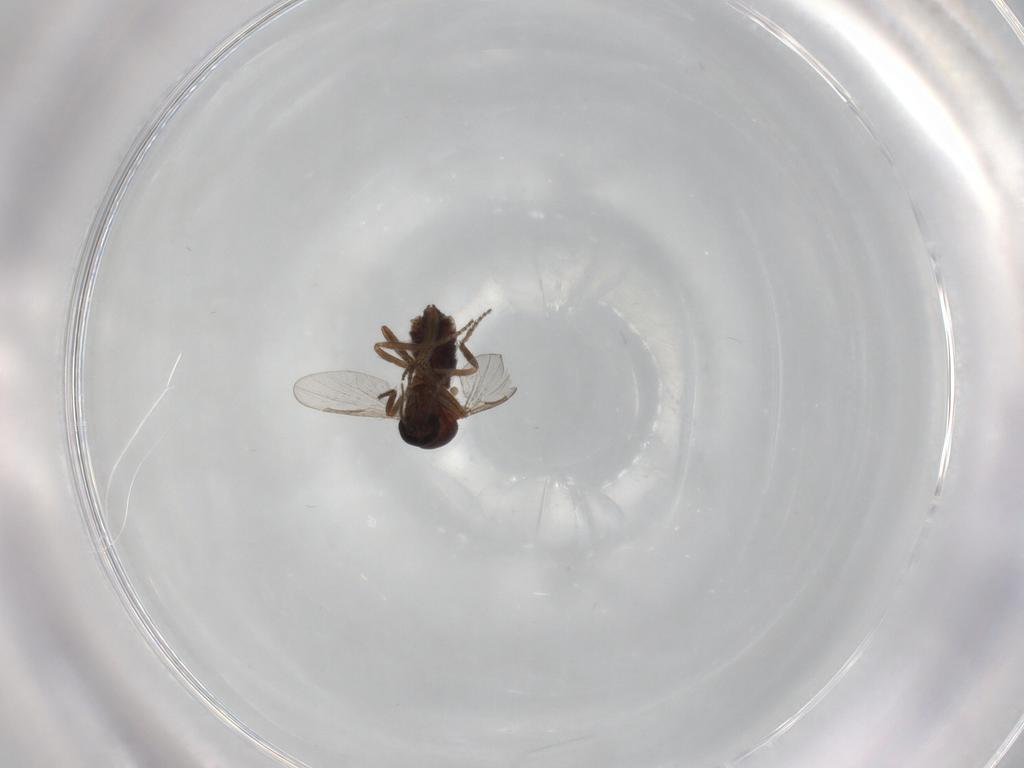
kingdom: Animalia
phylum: Arthropoda
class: Insecta
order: Diptera
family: Ceratopogonidae
